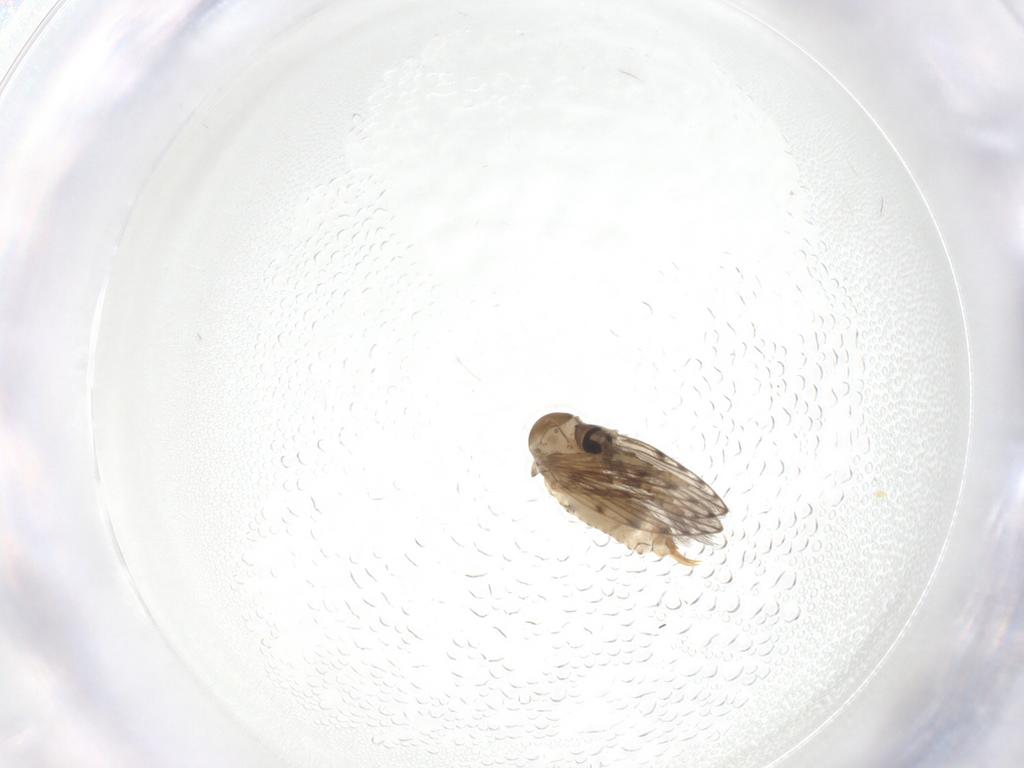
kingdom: Animalia
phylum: Arthropoda
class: Insecta
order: Diptera
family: Psychodidae
